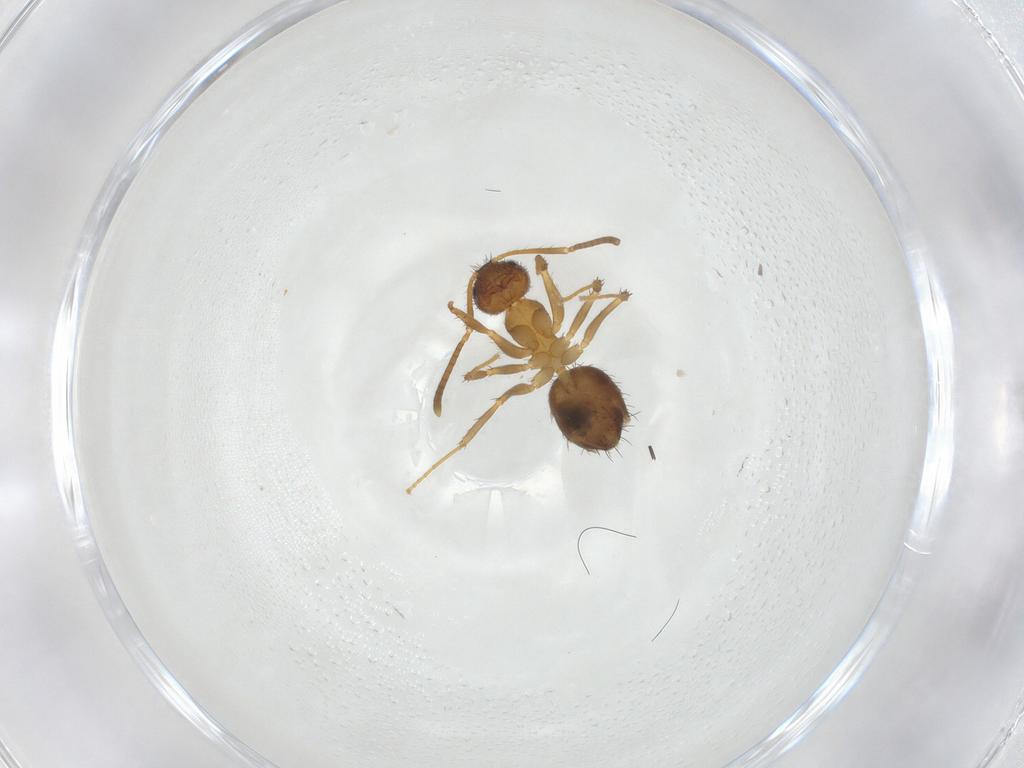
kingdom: Animalia
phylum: Arthropoda
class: Insecta
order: Hymenoptera
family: Formicidae
